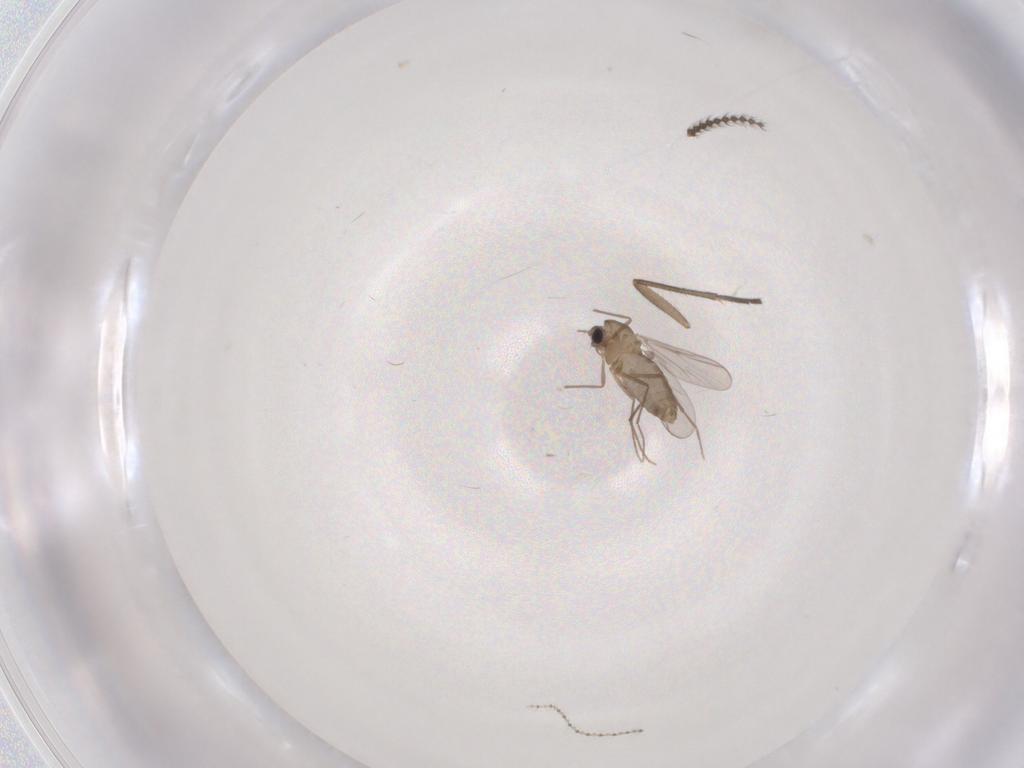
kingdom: Animalia
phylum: Arthropoda
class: Insecta
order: Diptera
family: Cecidomyiidae
